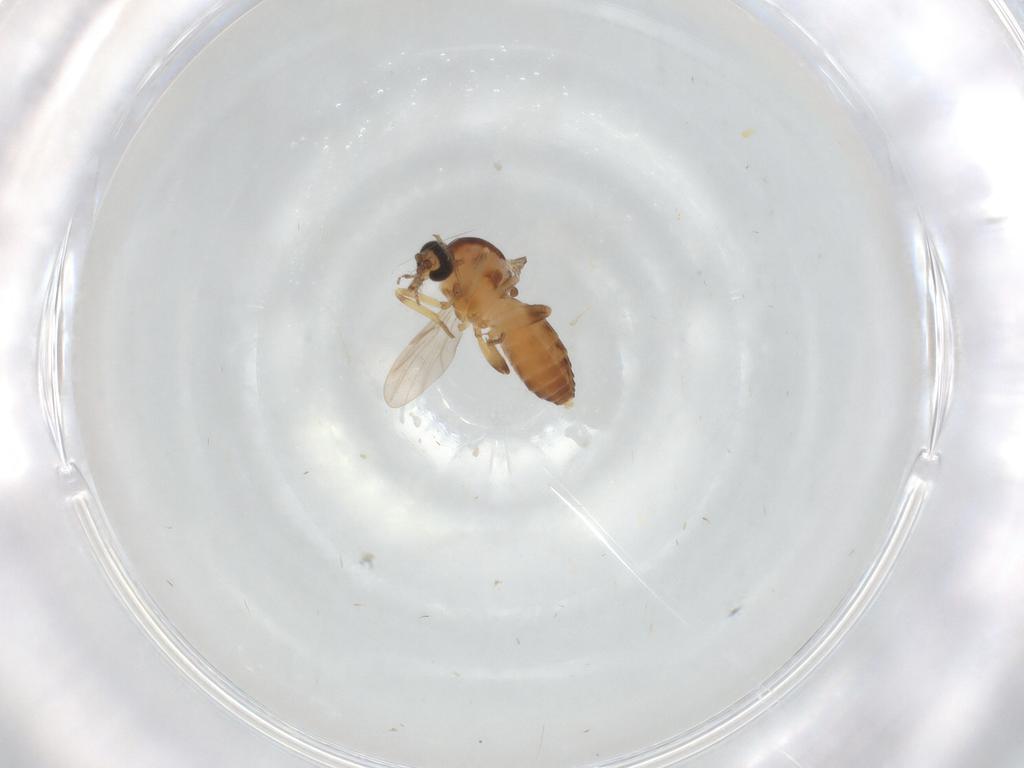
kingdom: Animalia
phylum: Arthropoda
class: Insecta
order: Diptera
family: Ceratopogonidae
